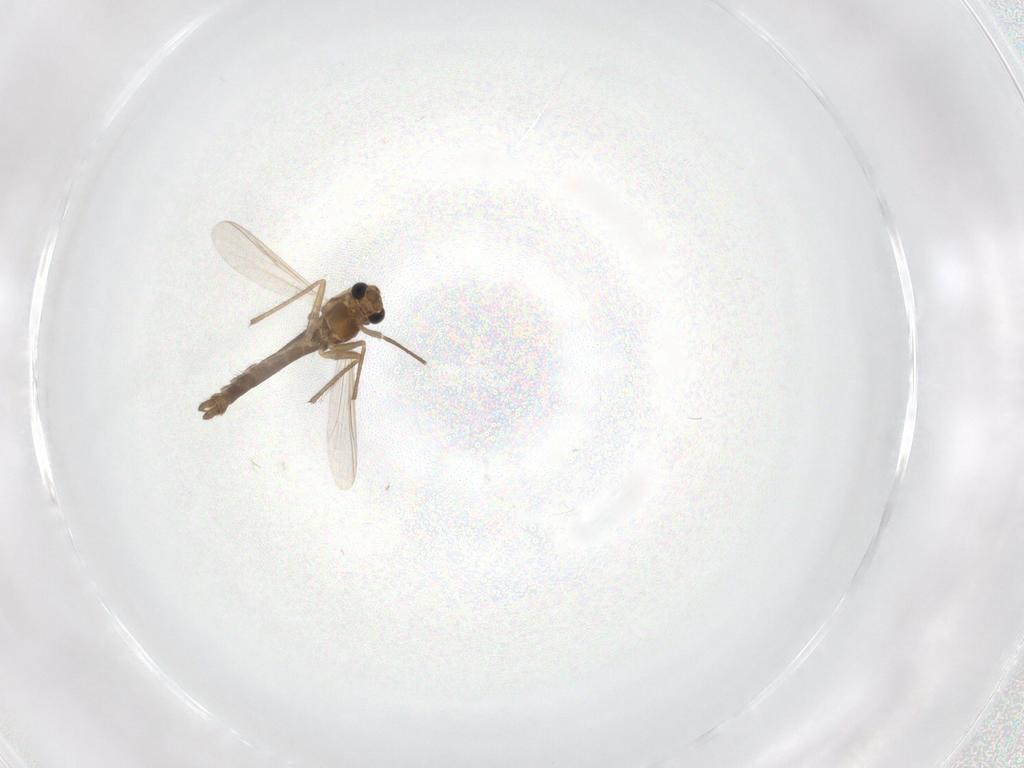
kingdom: Animalia
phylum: Arthropoda
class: Insecta
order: Diptera
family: Chironomidae
